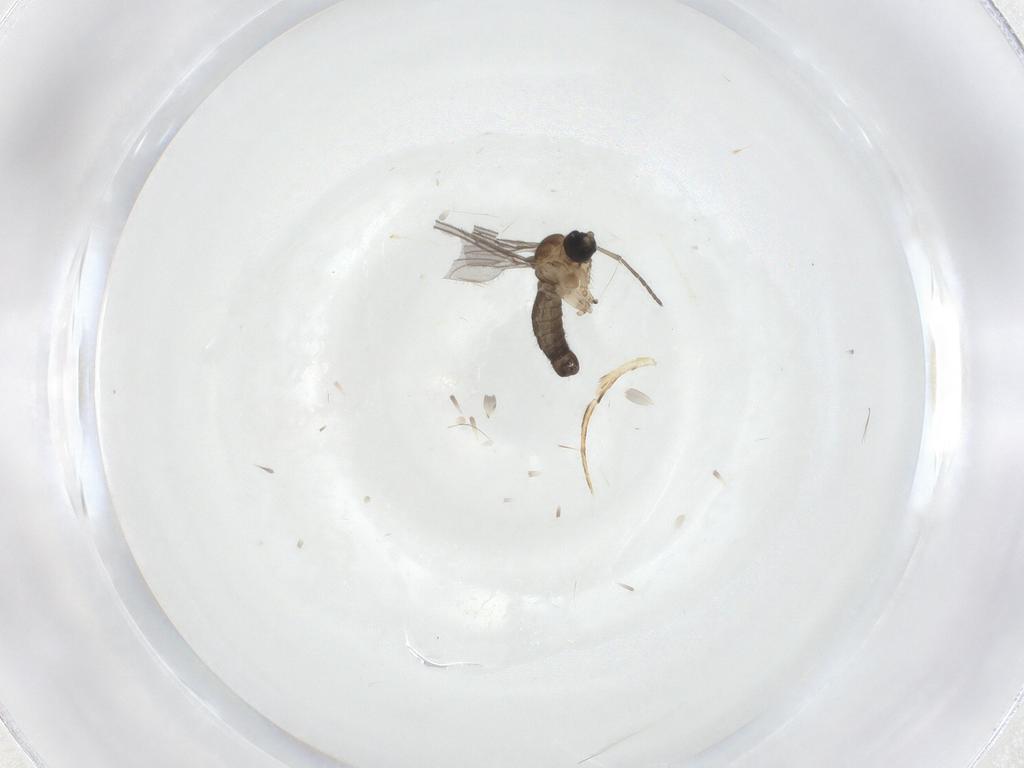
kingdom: Animalia
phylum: Arthropoda
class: Insecta
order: Diptera
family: Sciaridae
